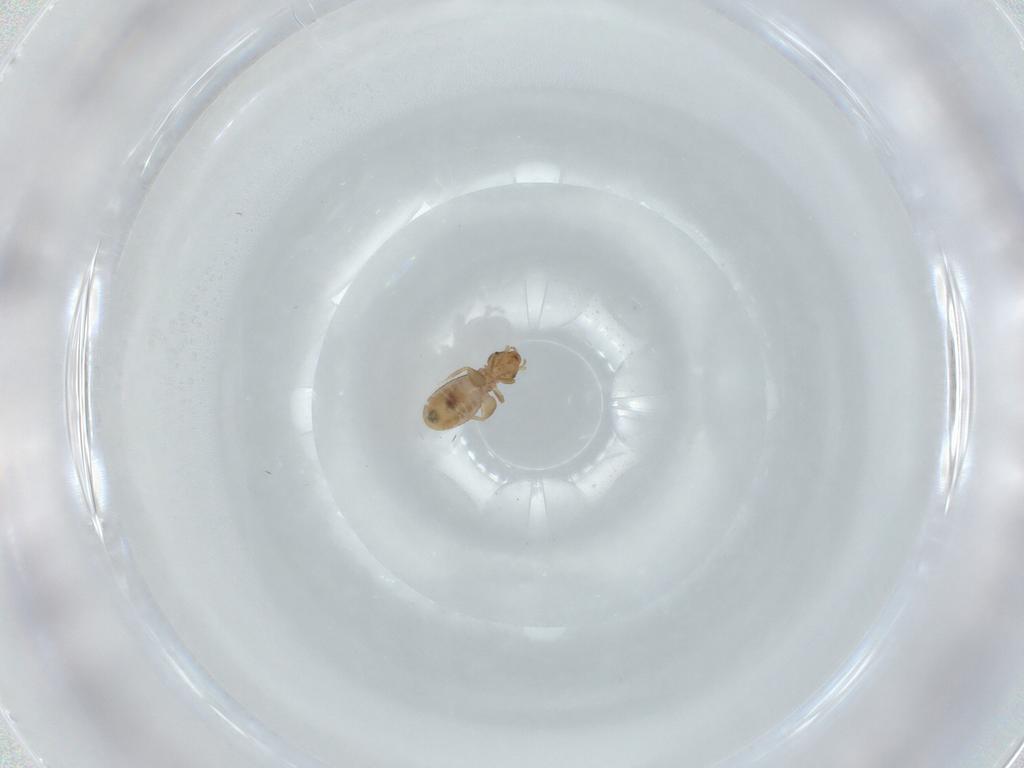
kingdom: Animalia
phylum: Arthropoda
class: Insecta
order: Psocodea
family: Liposcelididae
